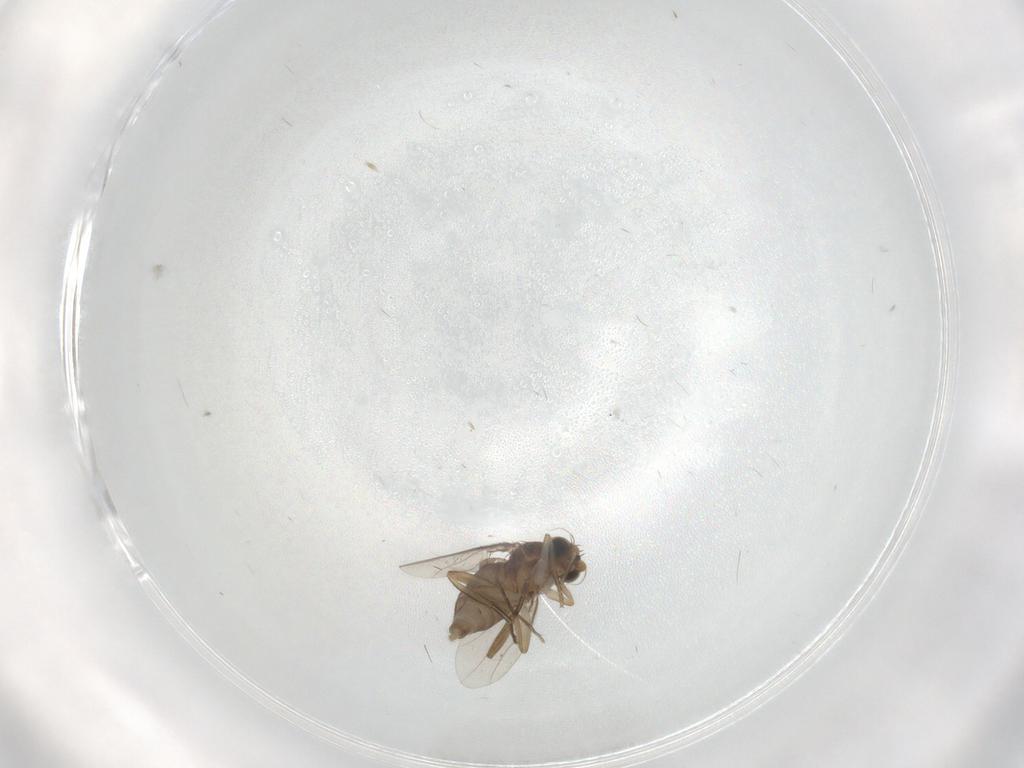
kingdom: Animalia
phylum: Arthropoda
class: Insecta
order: Diptera
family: Phoridae
